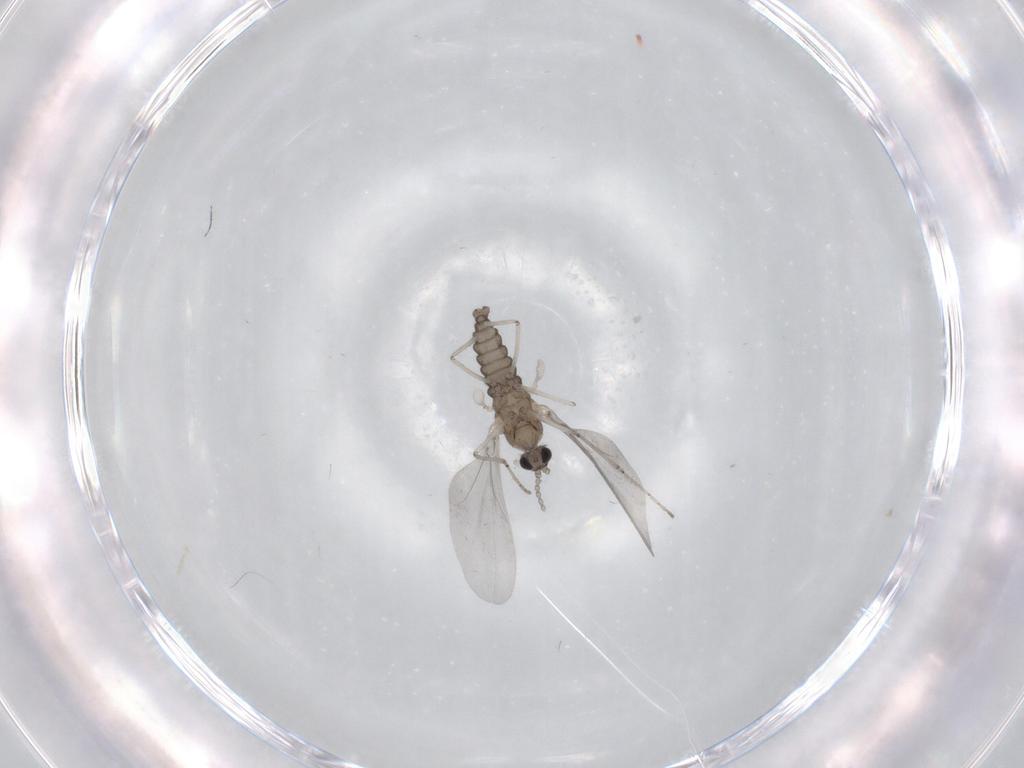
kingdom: Animalia
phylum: Arthropoda
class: Insecta
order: Diptera
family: Cecidomyiidae
